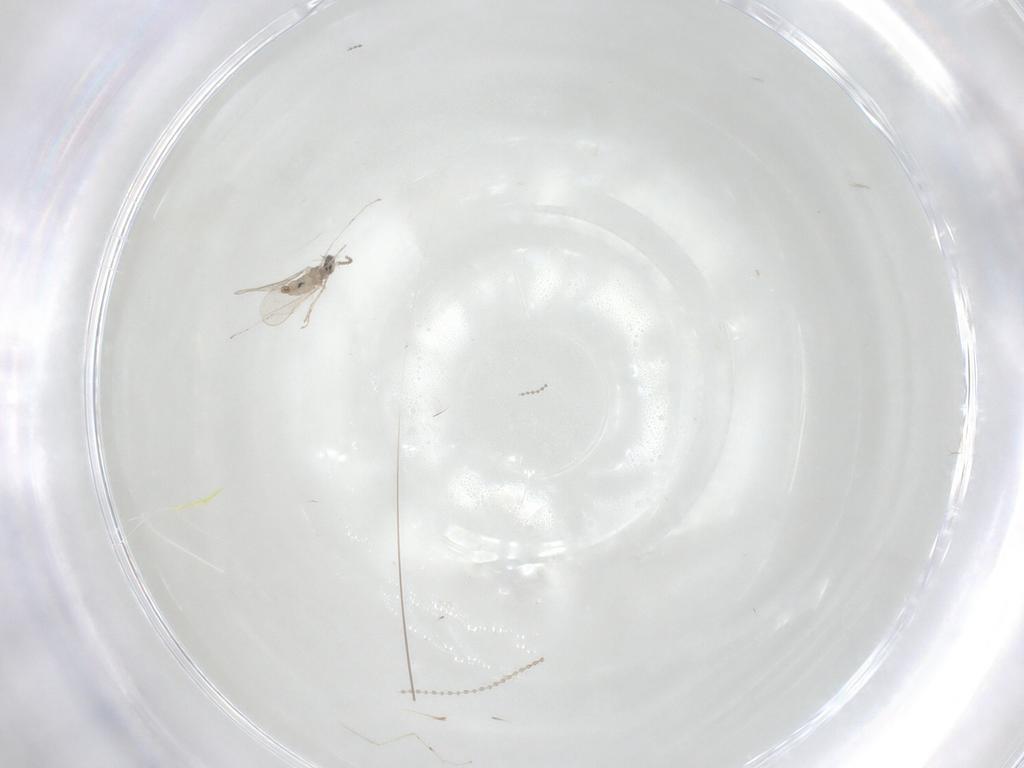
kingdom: Animalia
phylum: Arthropoda
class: Insecta
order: Diptera
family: Cecidomyiidae
